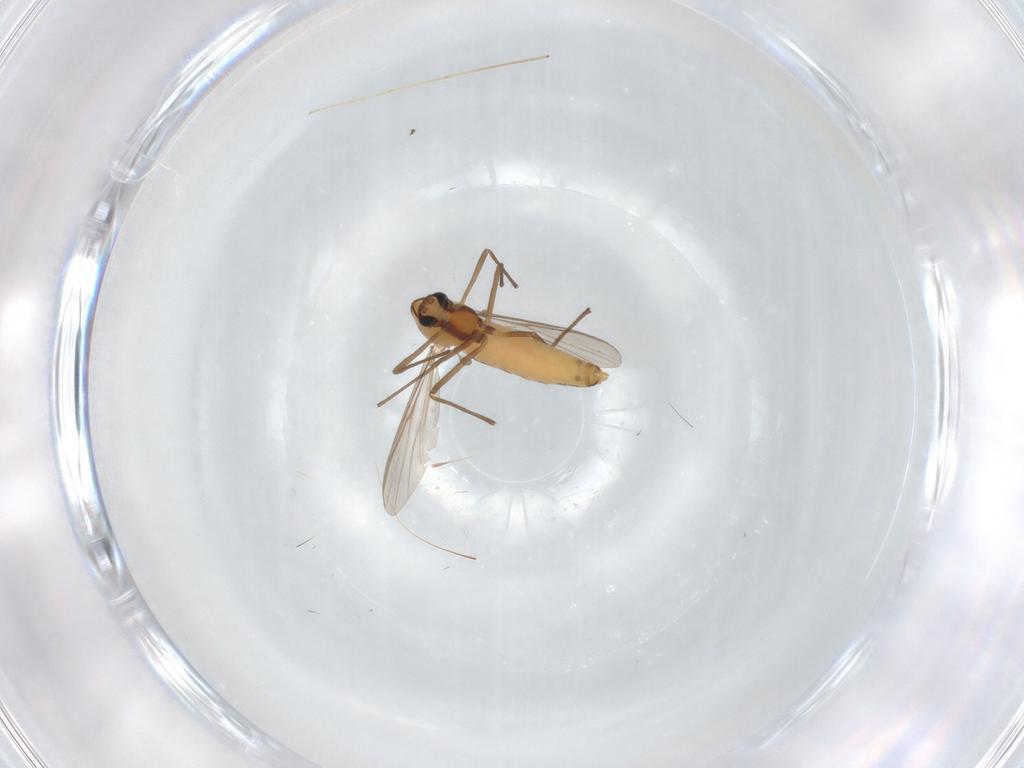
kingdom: Animalia
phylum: Arthropoda
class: Insecta
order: Diptera
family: Chironomidae
